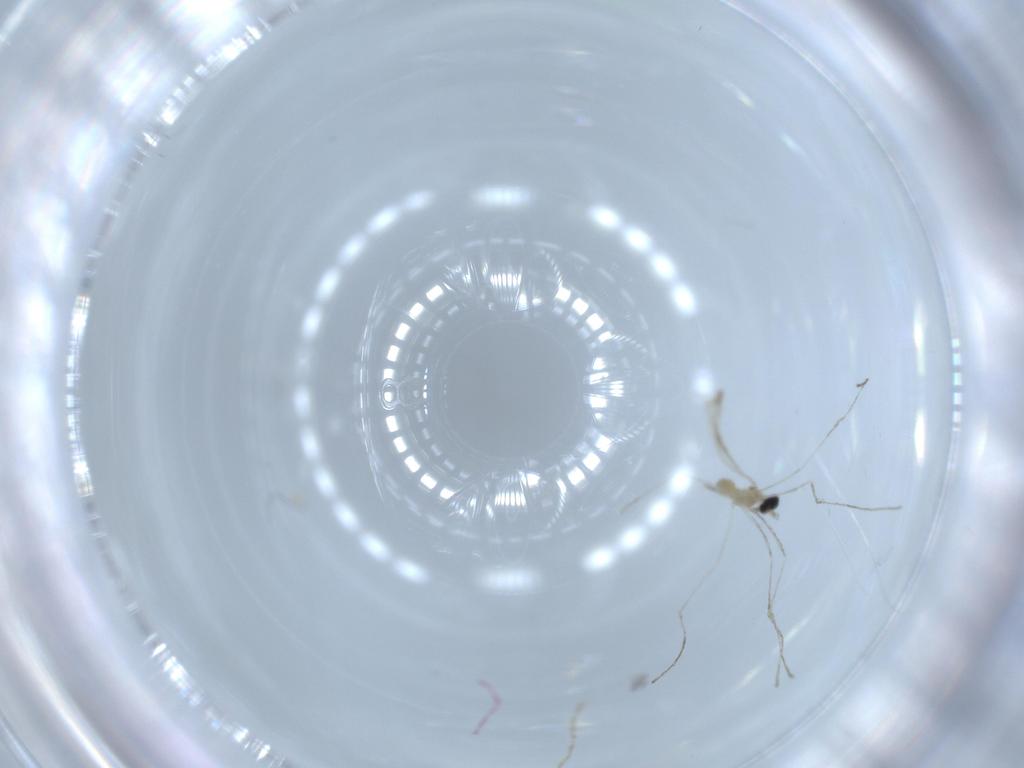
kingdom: Animalia
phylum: Arthropoda
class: Insecta
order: Diptera
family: Cecidomyiidae
